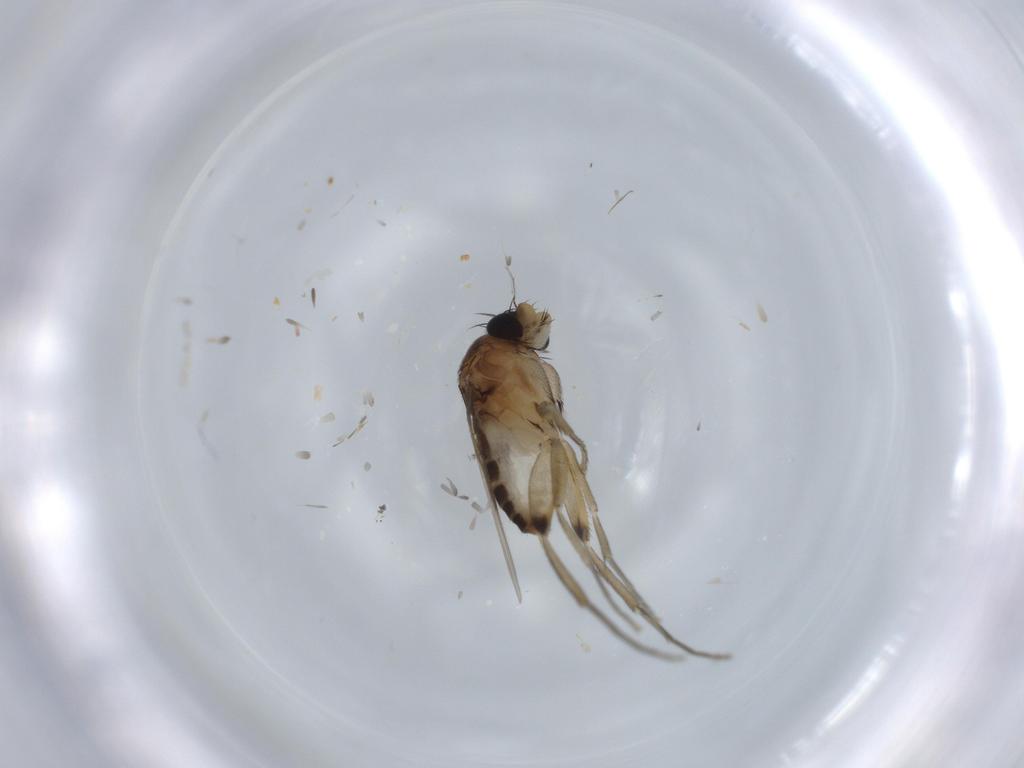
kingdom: Animalia
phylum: Arthropoda
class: Insecta
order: Diptera
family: Phoridae
